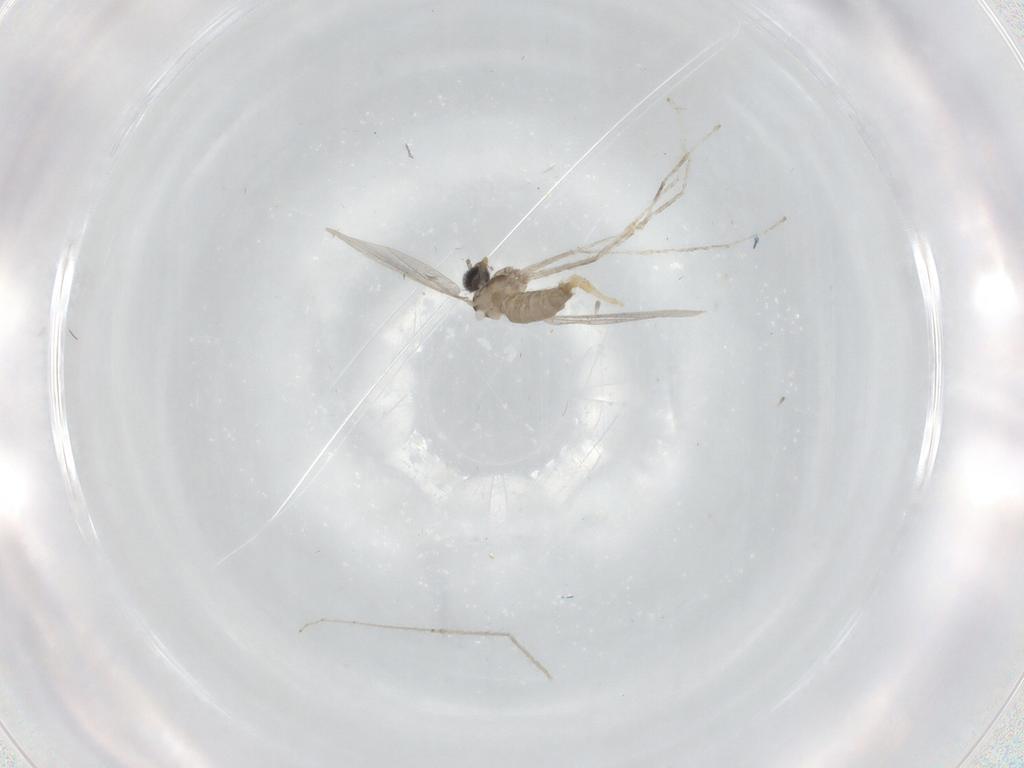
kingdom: Animalia
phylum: Arthropoda
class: Insecta
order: Diptera
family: Cecidomyiidae
